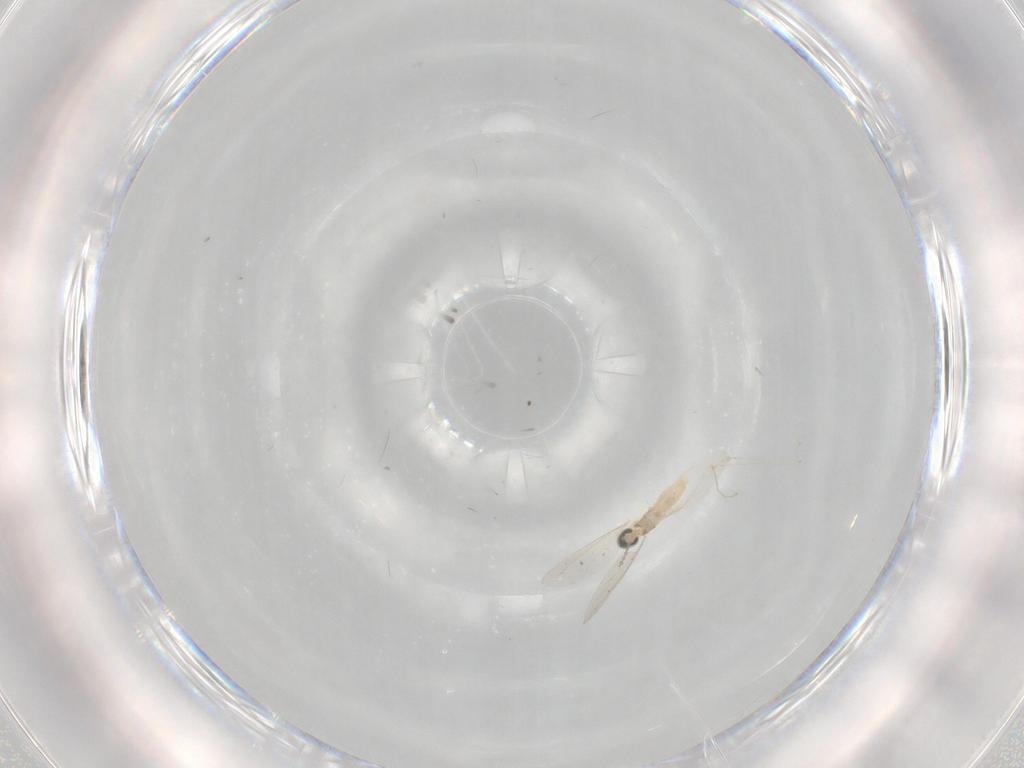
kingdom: Animalia
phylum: Arthropoda
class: Insecta
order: Diptera
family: Cecidomyiidae
